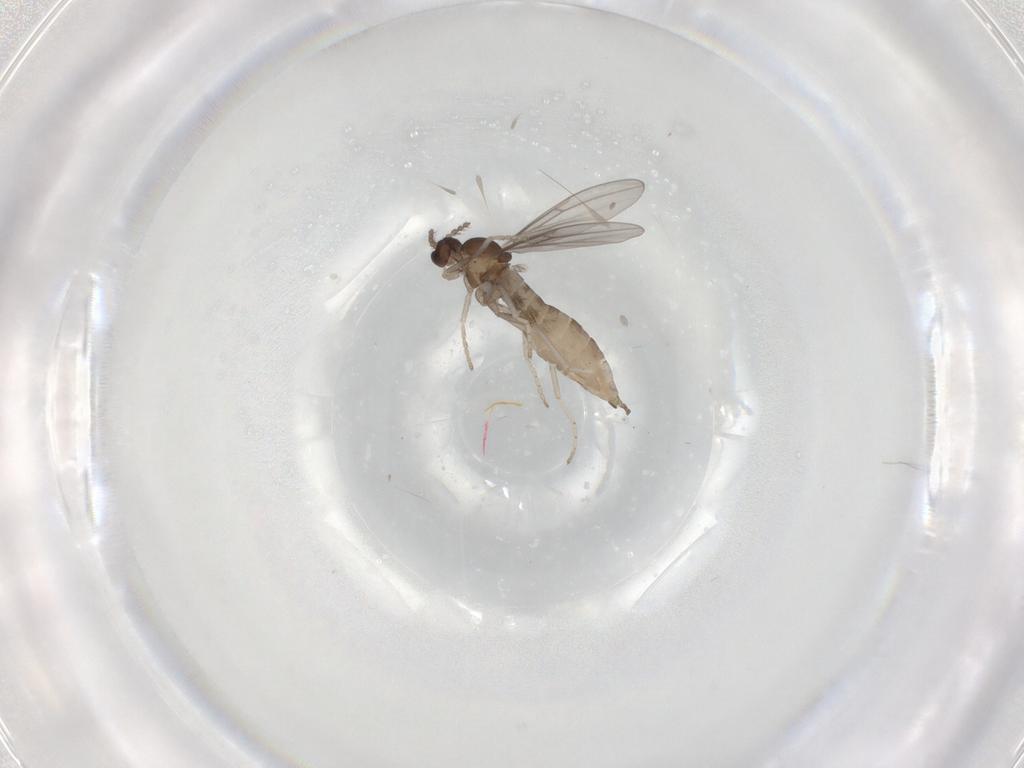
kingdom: Animalia
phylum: Arthropoda
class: Insecta
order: Diptera
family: Cecidomyiidae
